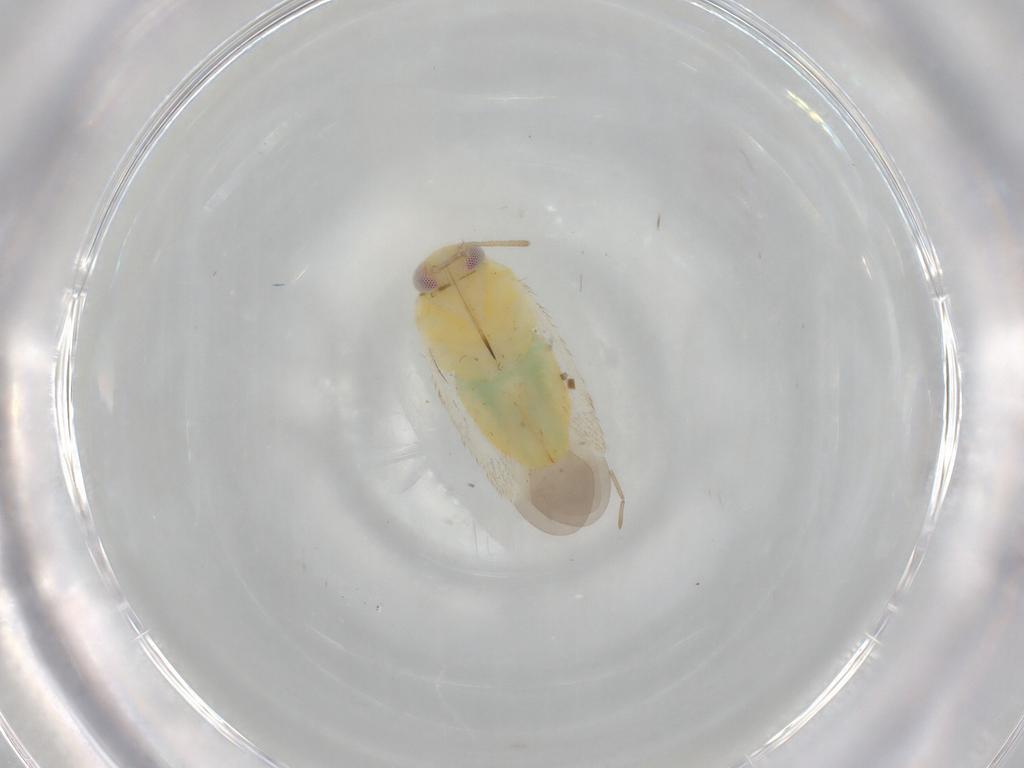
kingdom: Animalia
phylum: Arthropoda
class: Insecta
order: Hemiptera
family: Miridae
